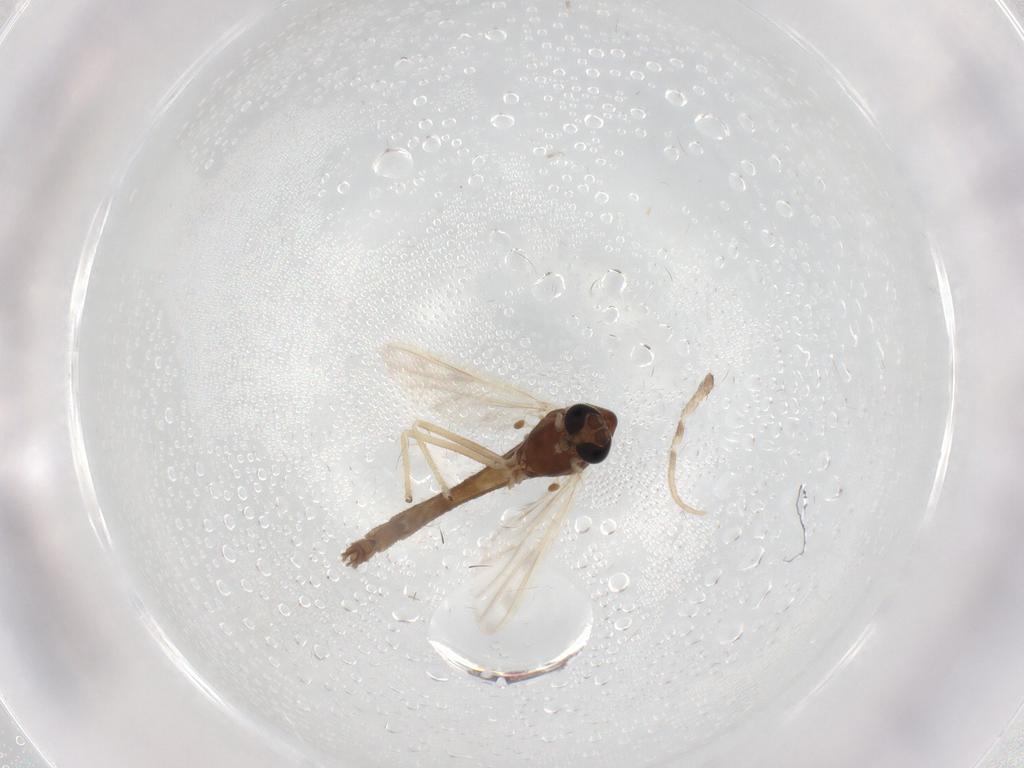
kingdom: Animalia
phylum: Arthropoda
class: Insecta
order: Diptera
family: Chironomidae
